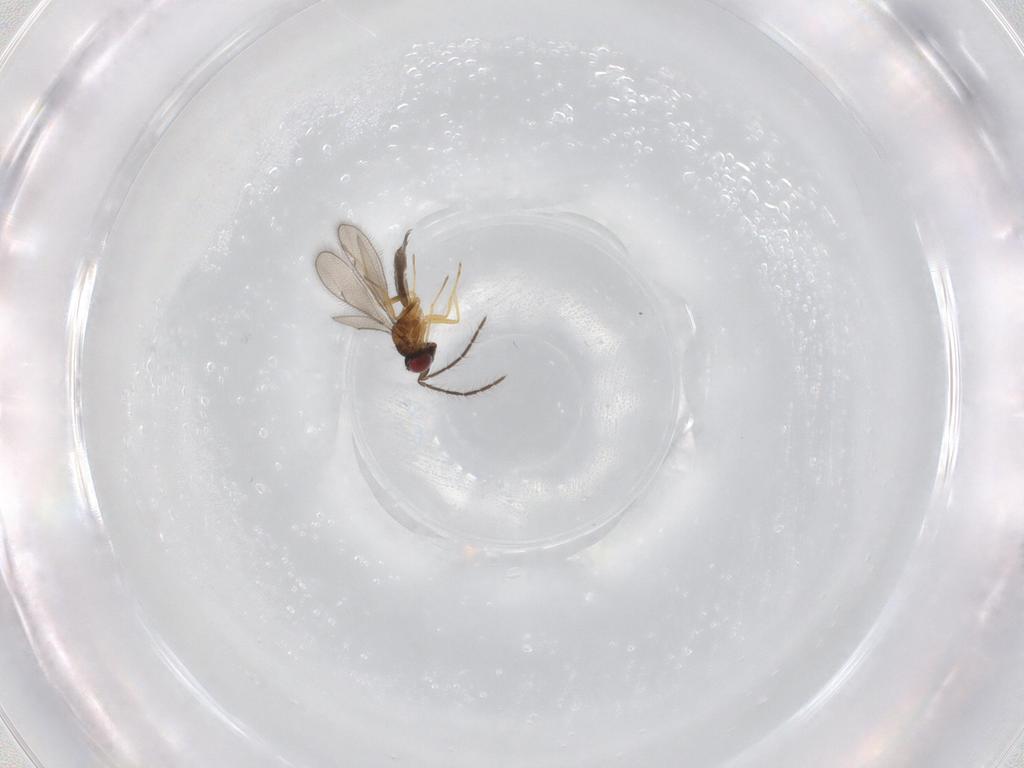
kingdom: Animalia
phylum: Arthropoda
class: Insecta
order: Hymenoptera
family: Eulophidae
